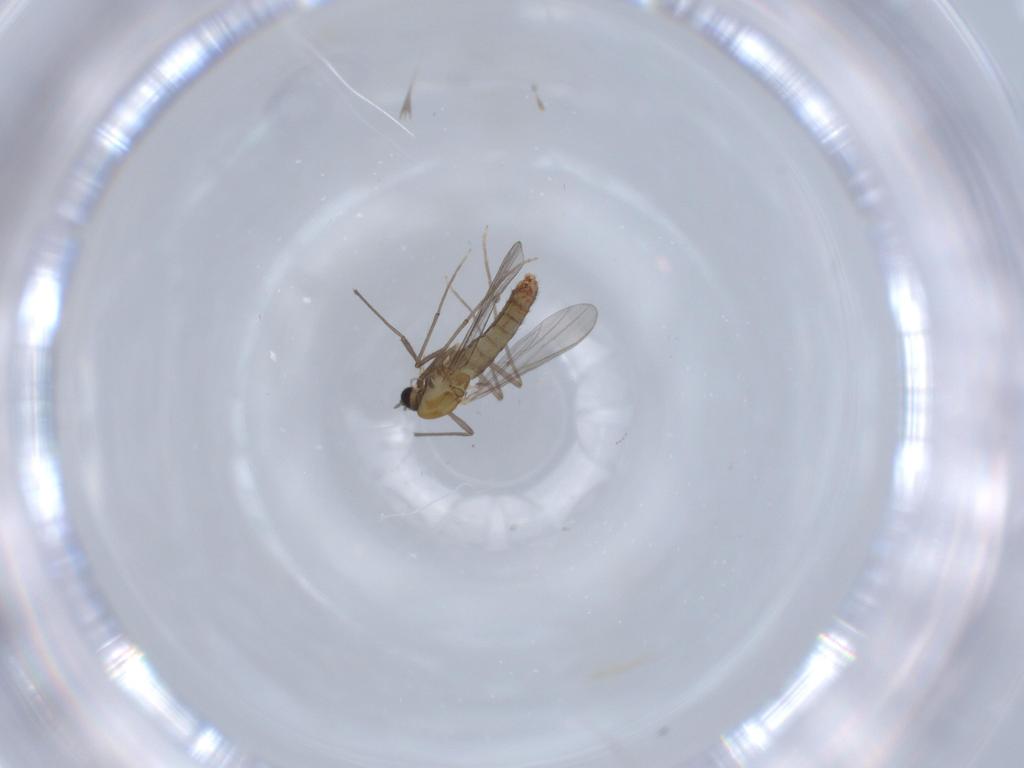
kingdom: Animalia
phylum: Arthropoda
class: Insecta
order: Diptera
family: Chironomidae
